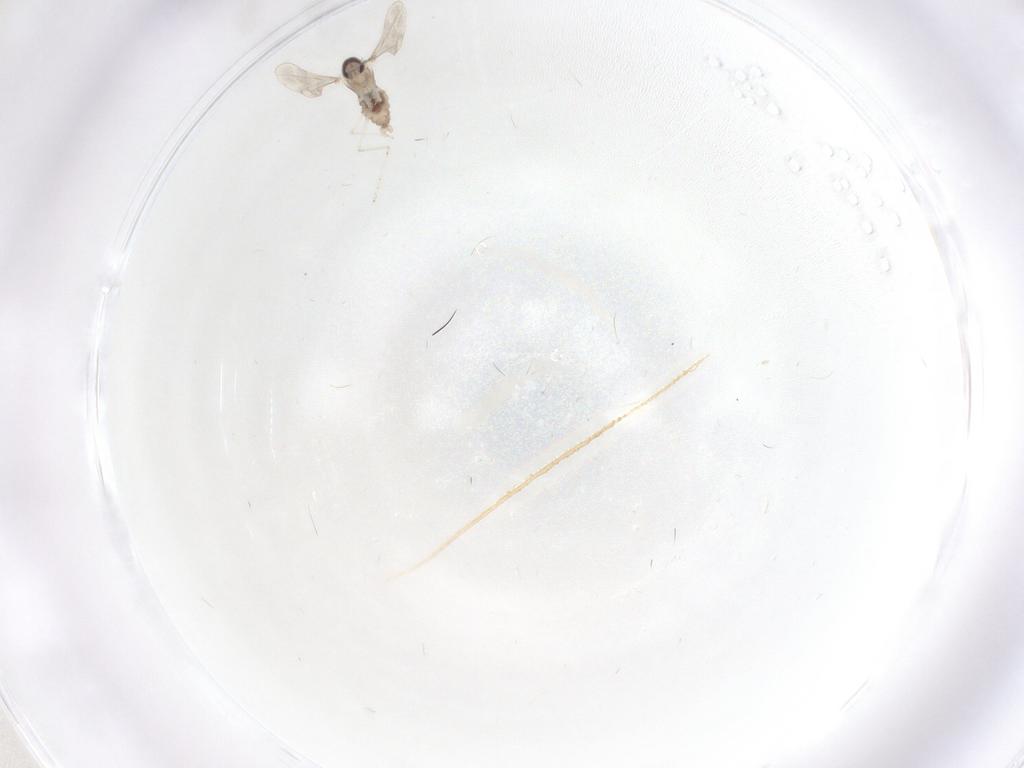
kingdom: Animalia
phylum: Arthropoda
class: Insecta
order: Diptera
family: Cecidomyiidae
